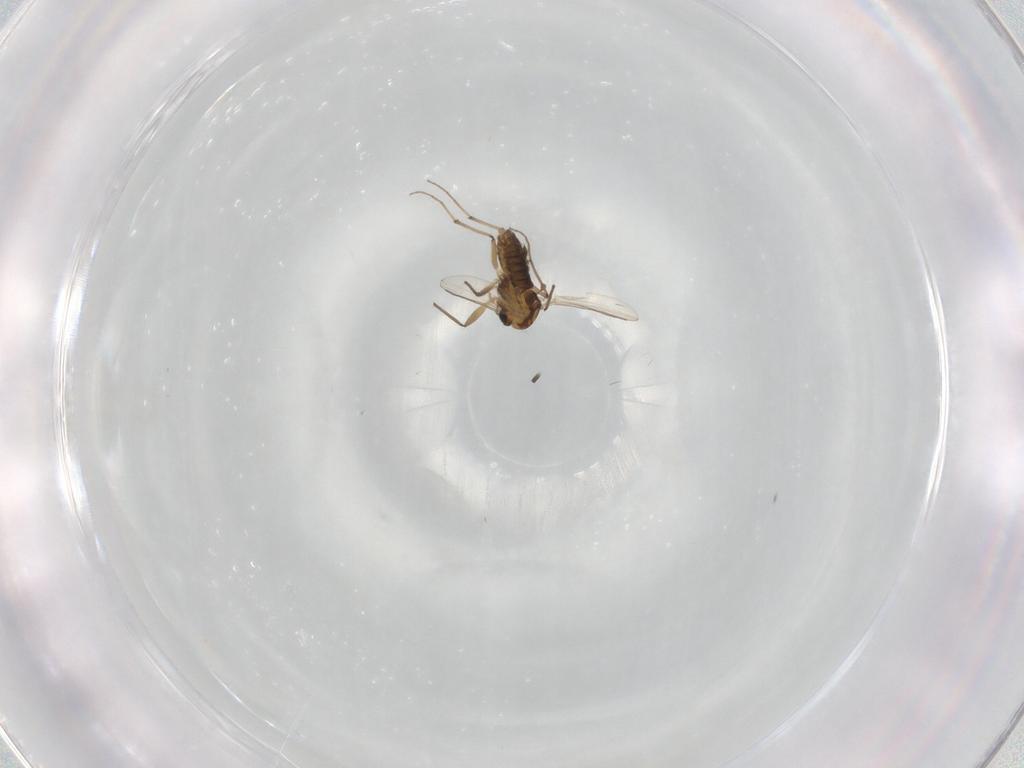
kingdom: Animalia
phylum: Arthropoda
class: Insecta
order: Diptera
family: Chironomidae
